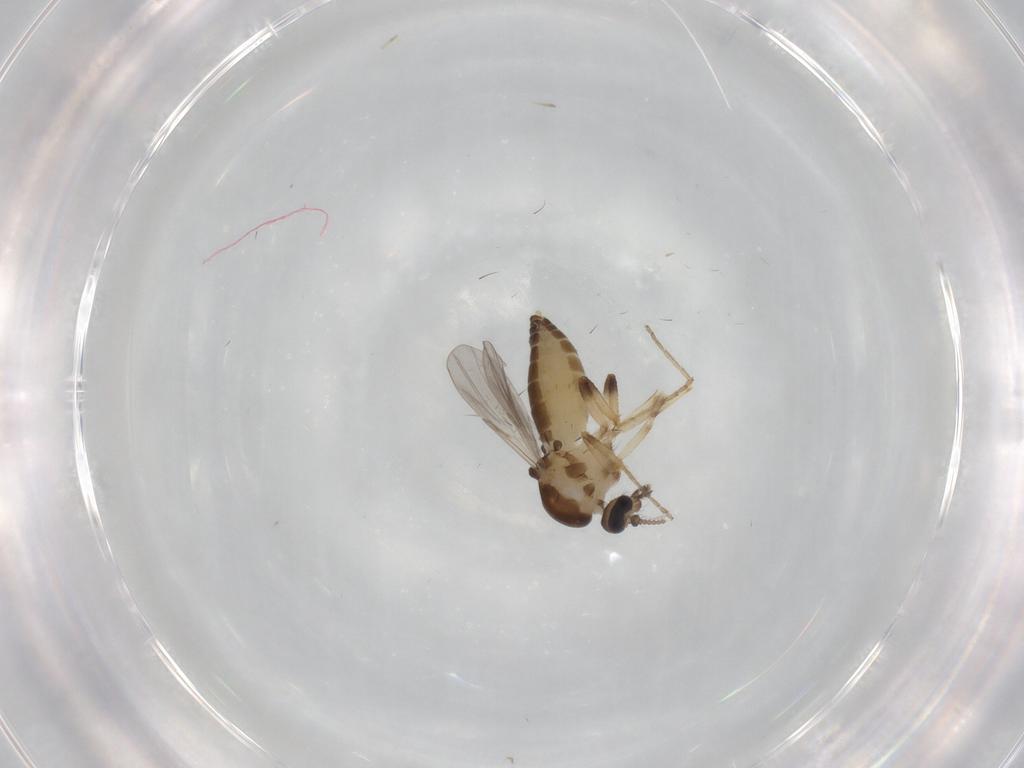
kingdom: Animalia
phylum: Arthropoda
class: Insecta
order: Diptera
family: Ceratopogonidae
